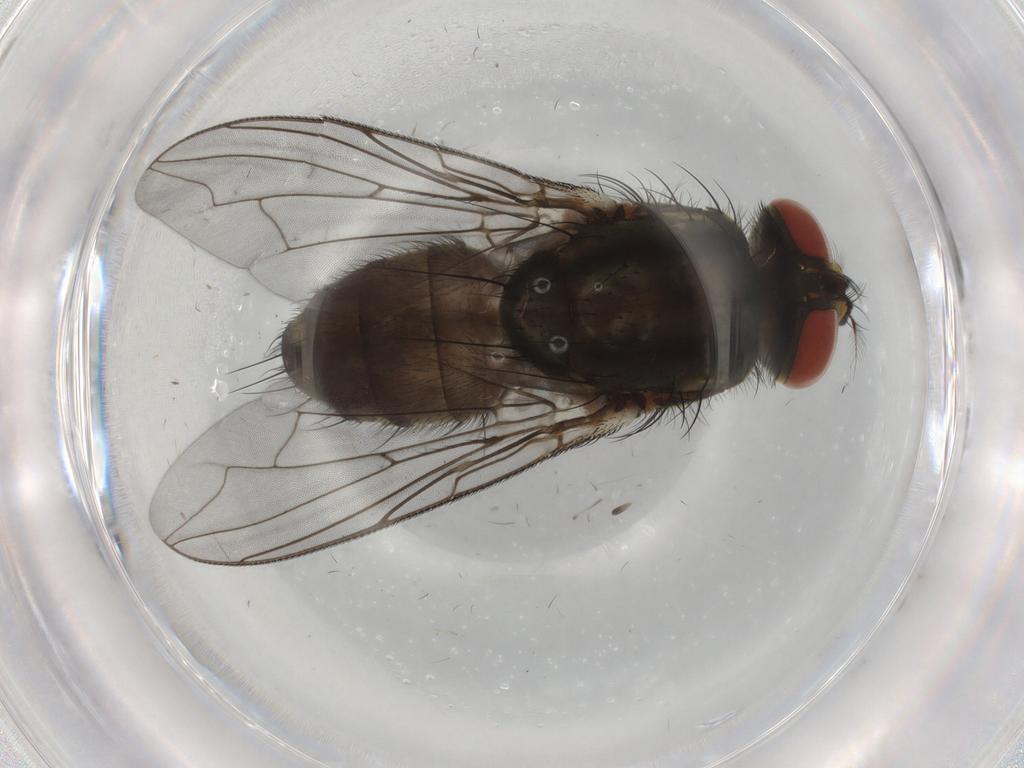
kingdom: Animalia
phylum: Arthropoda
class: Insecta
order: Diptera
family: Sarcophagidae
